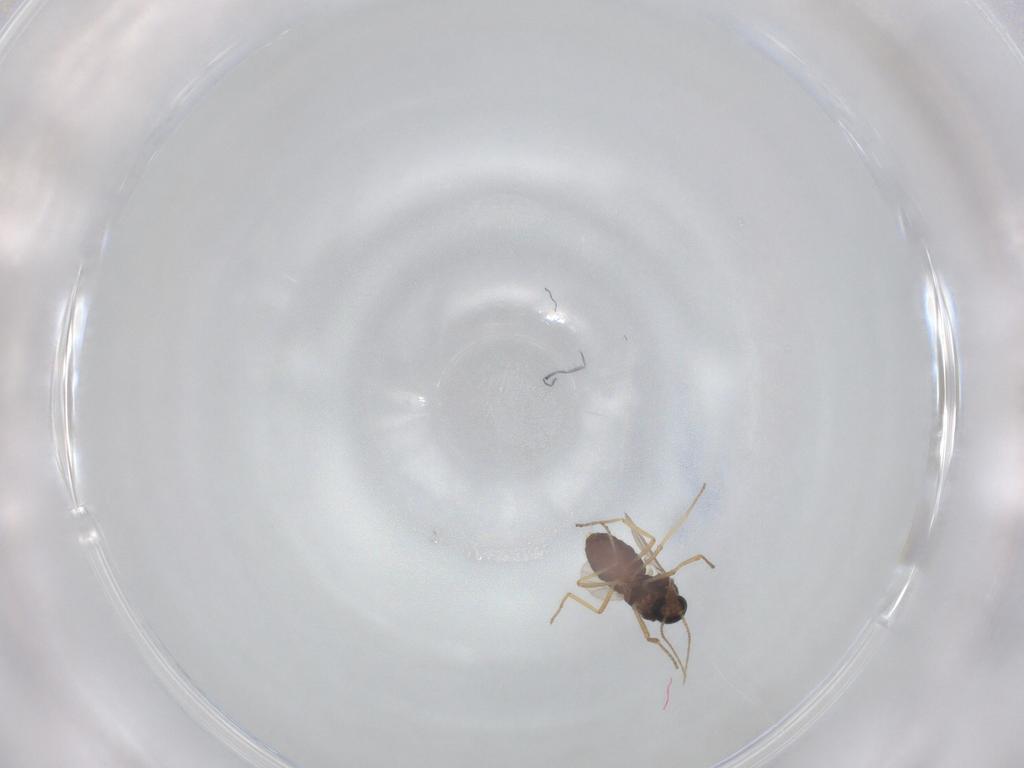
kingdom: Animalia
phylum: Arthropoda
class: Insecta
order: Diptera
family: Ceratopogonidae
